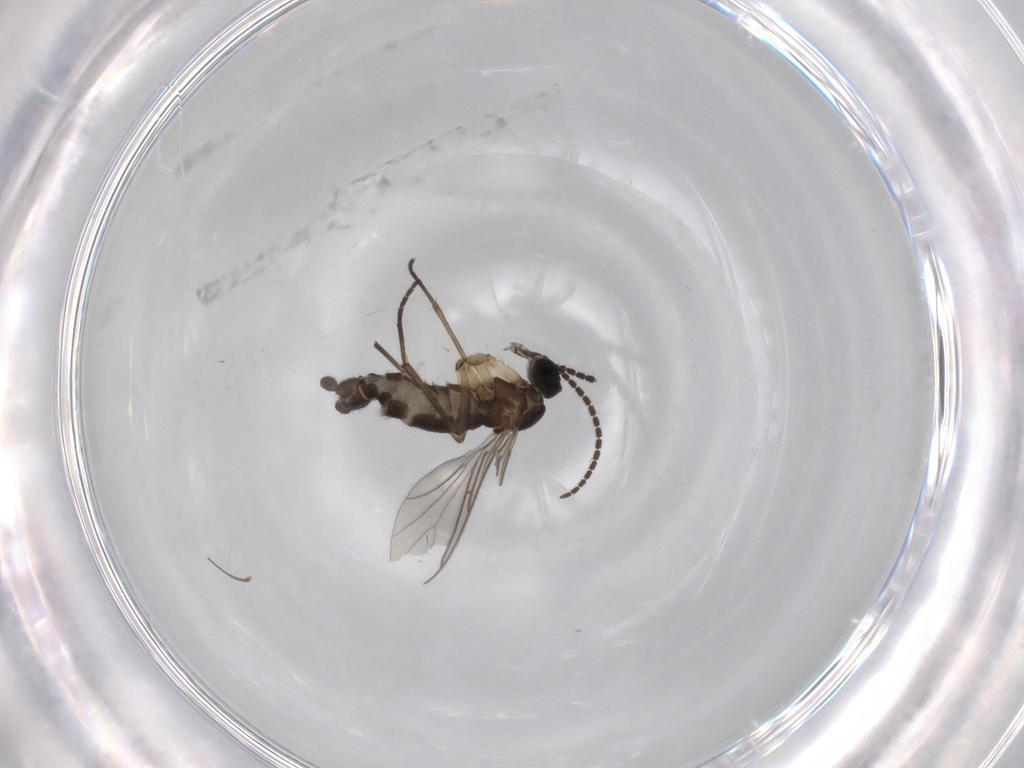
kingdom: Animalia
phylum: Arthropoda
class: Insecta
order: Diptera
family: Sciaridae
